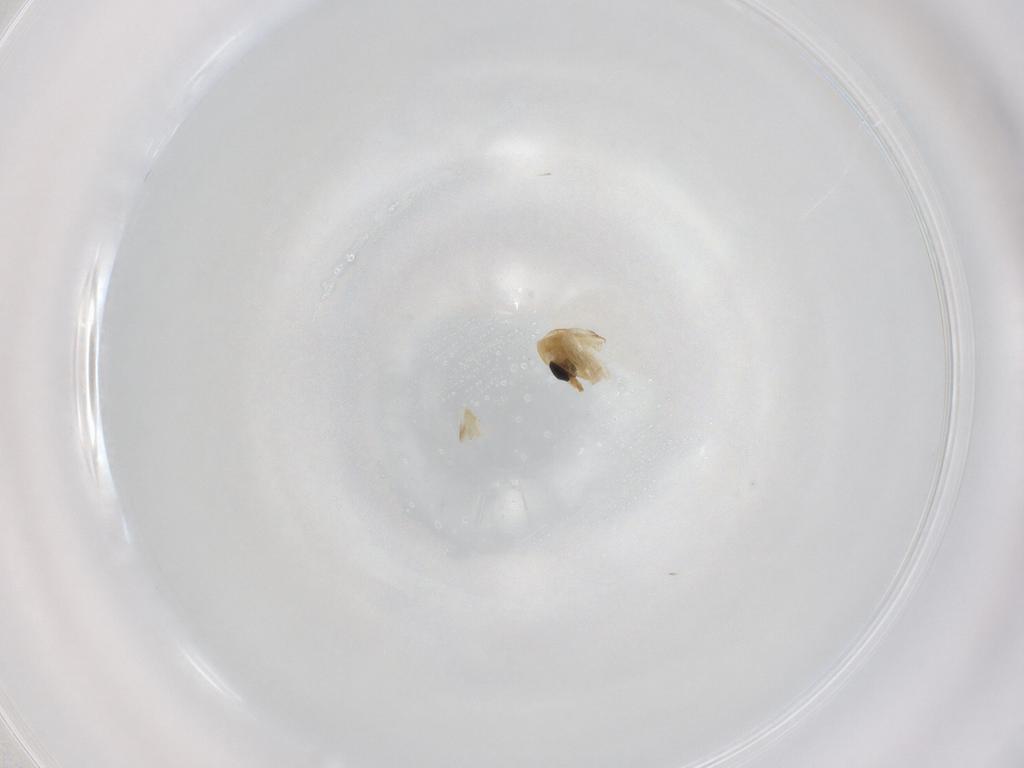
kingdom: Animalia
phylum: Arthropoda
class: Insecta
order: Diptera
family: Chironomidae
